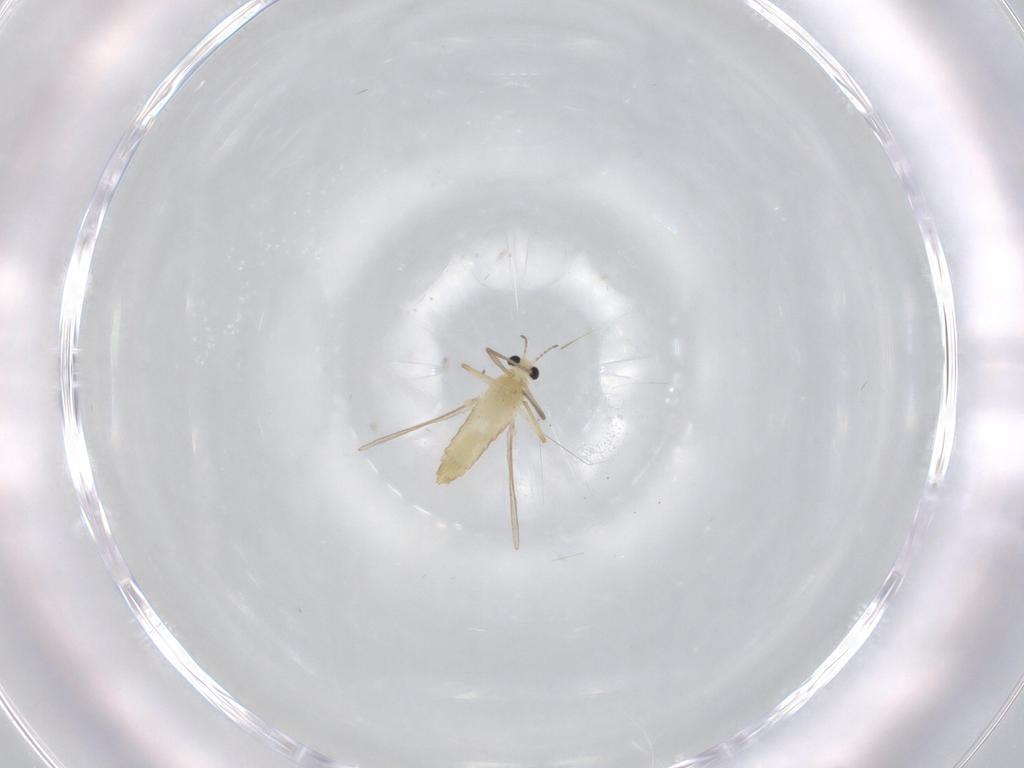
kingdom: Animalia
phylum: Arthropoda
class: Insecta
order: Diptera
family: Chironomidae
